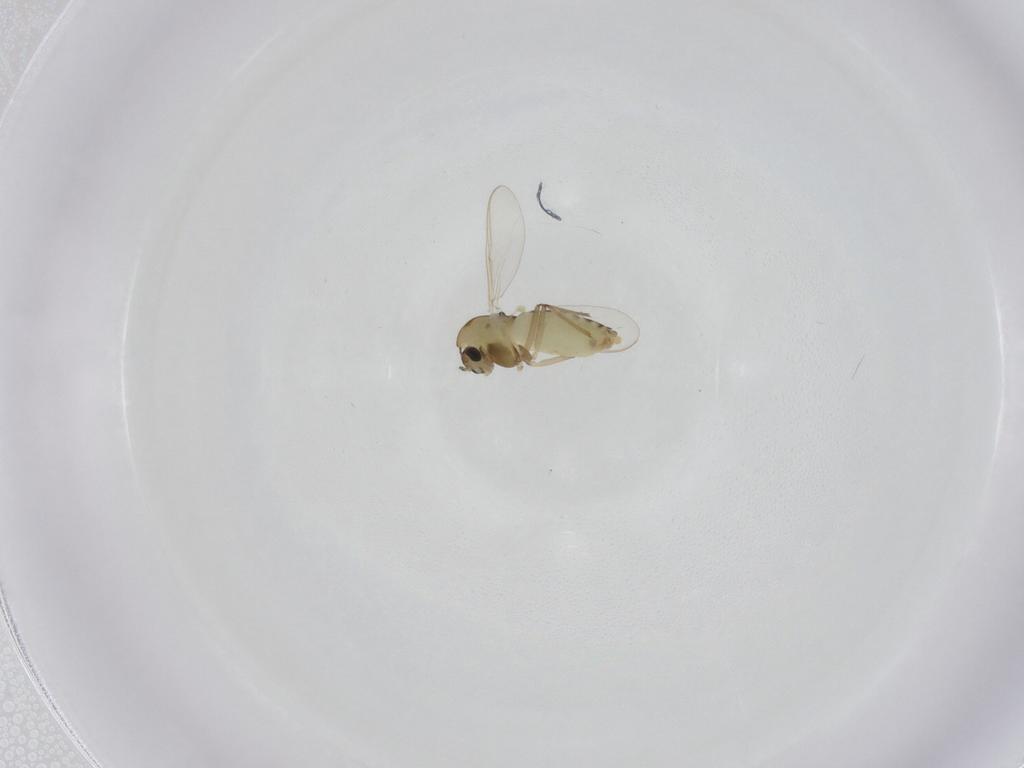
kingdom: Animalia
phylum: Arthropoda
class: Insecta
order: Diptera
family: Chironomidae
